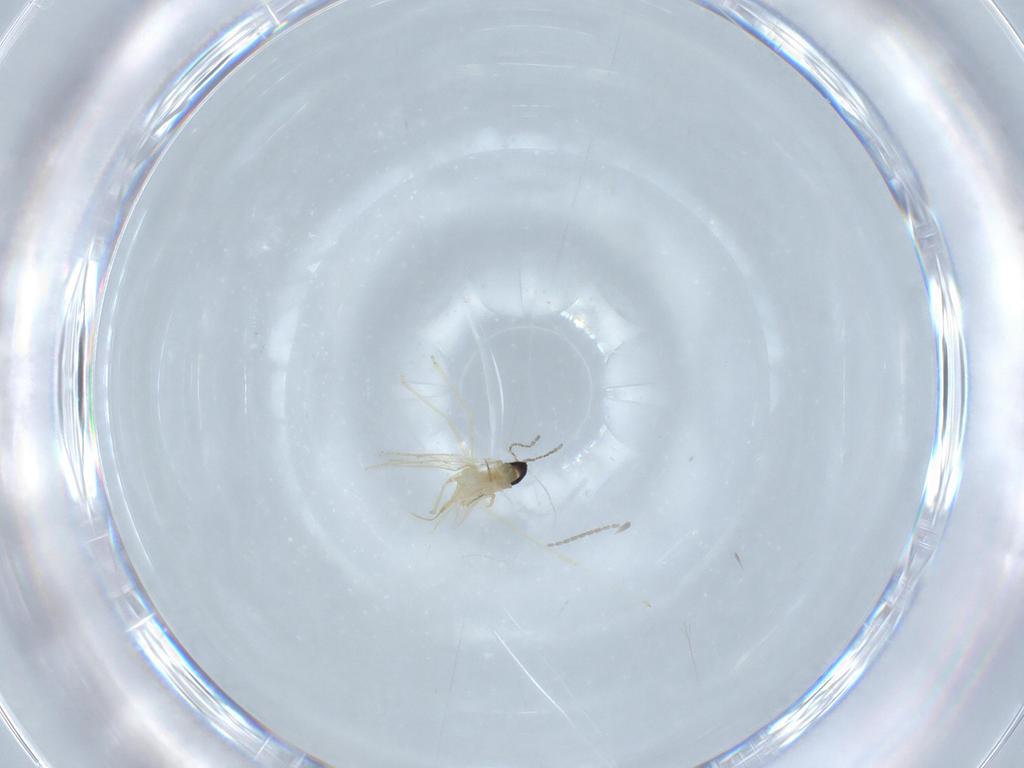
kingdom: Animalia
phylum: Arthropoda
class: Insecta
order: Diptera
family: Cecidomyiidae
